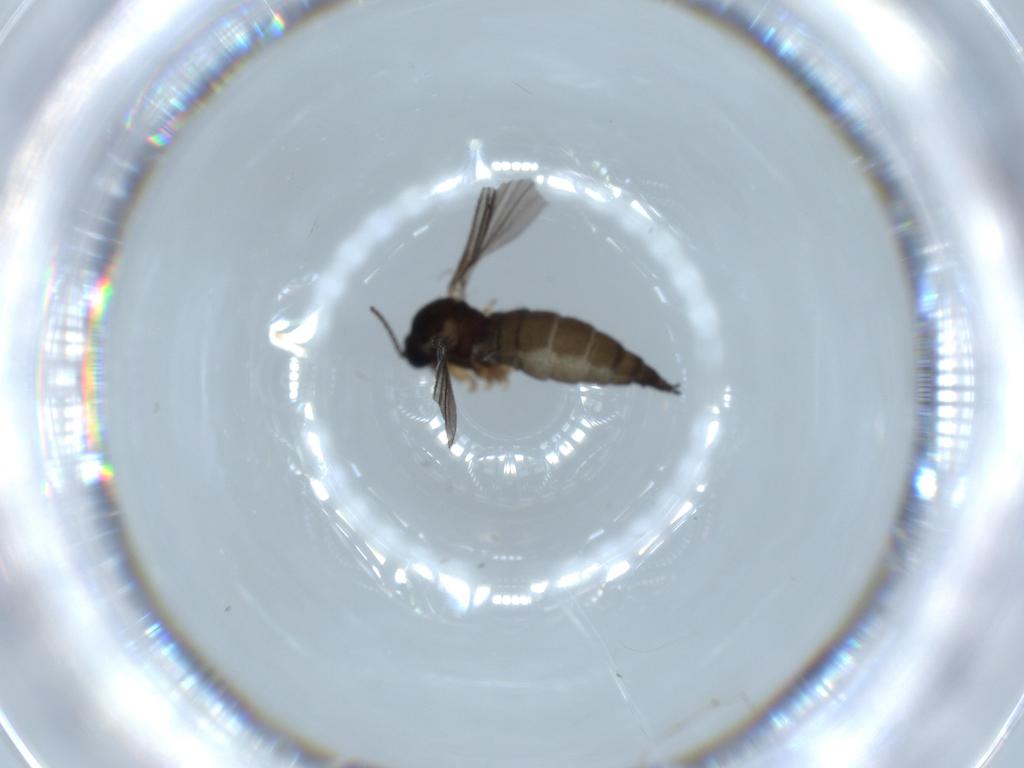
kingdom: Animalia
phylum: Arthropoda
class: Insecta
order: Diptera
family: Sciaridae
